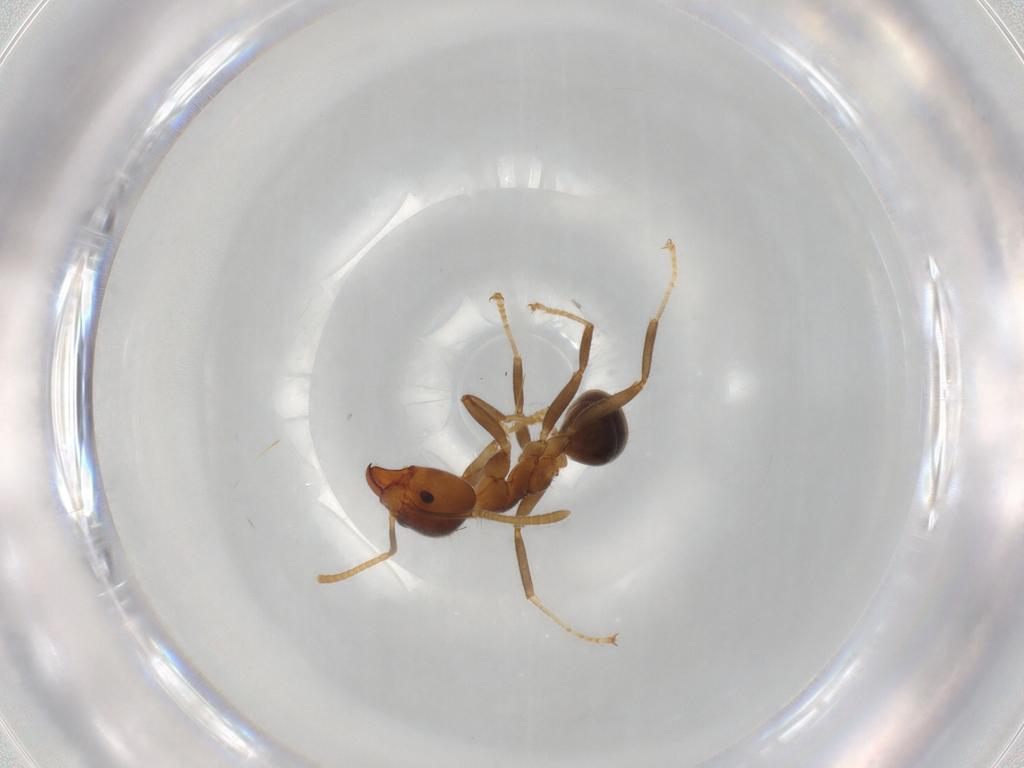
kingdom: Animalia
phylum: Arthropoda
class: Insecta
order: Hymenoptera
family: Formicidae
